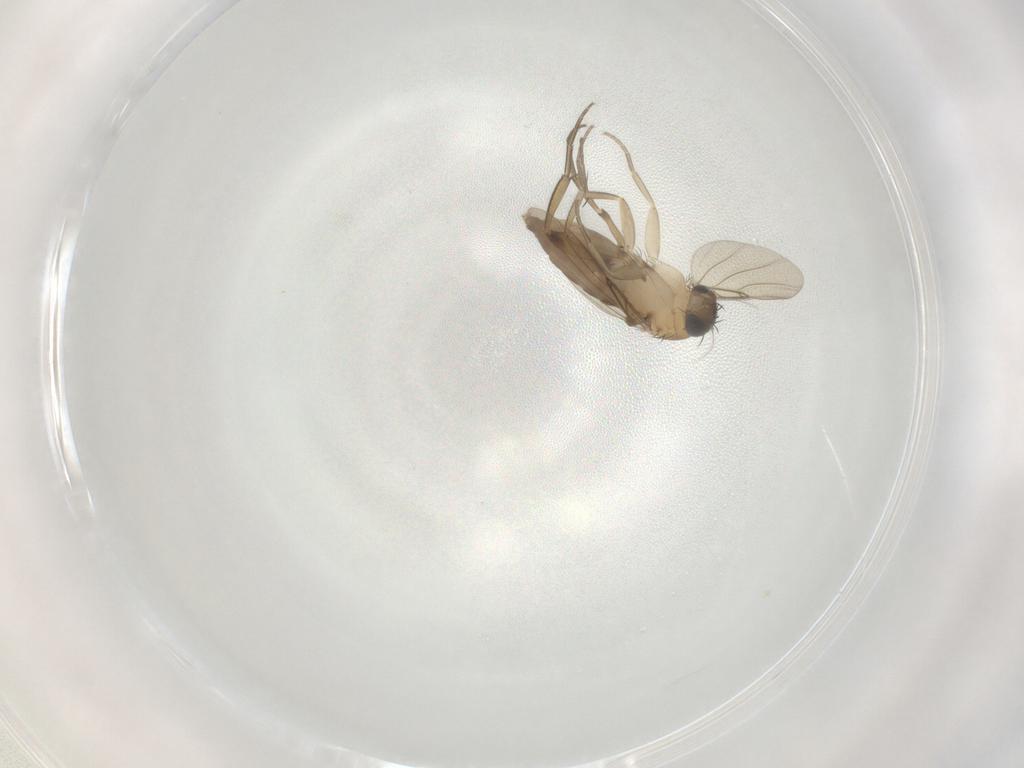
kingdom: Animalia
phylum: Arthropoda
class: Insecta
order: Diptera
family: Phoridae
